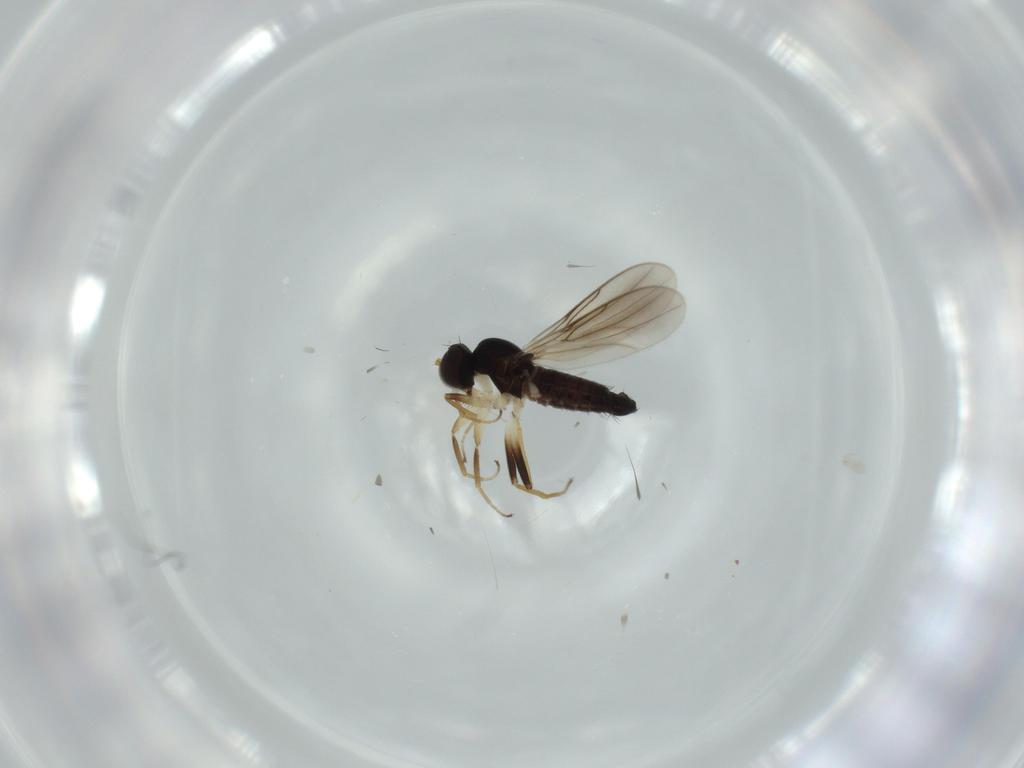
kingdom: Animalia
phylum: Arthropoda
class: Insecta
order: Diptera
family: Hybotidae
